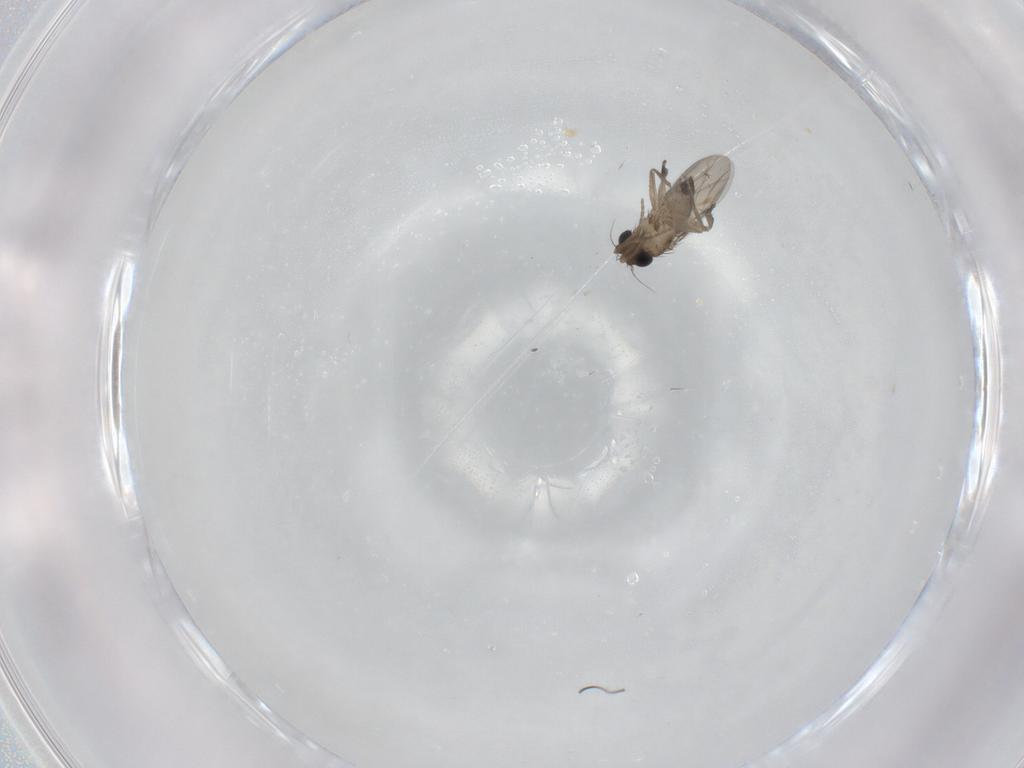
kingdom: Animalia
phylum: Arthropoda
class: Insecta
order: Diptera
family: Phoridae
